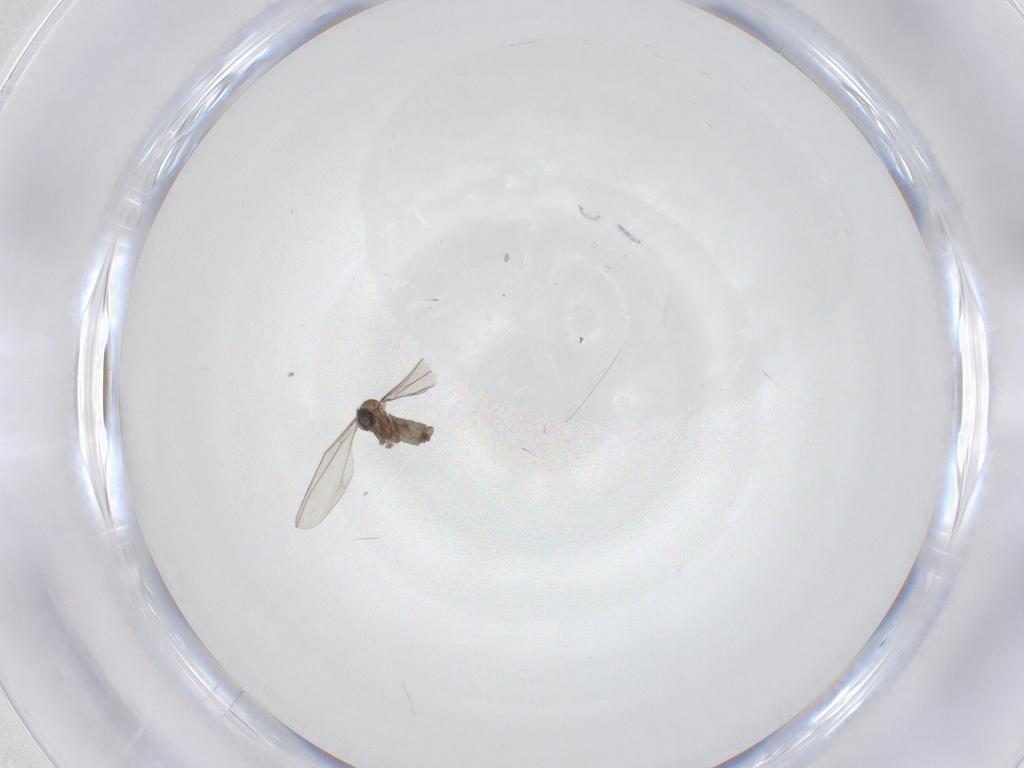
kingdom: Animalia
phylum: Arthropoda
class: Insecta
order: Diptera
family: Cecidomyiidae
